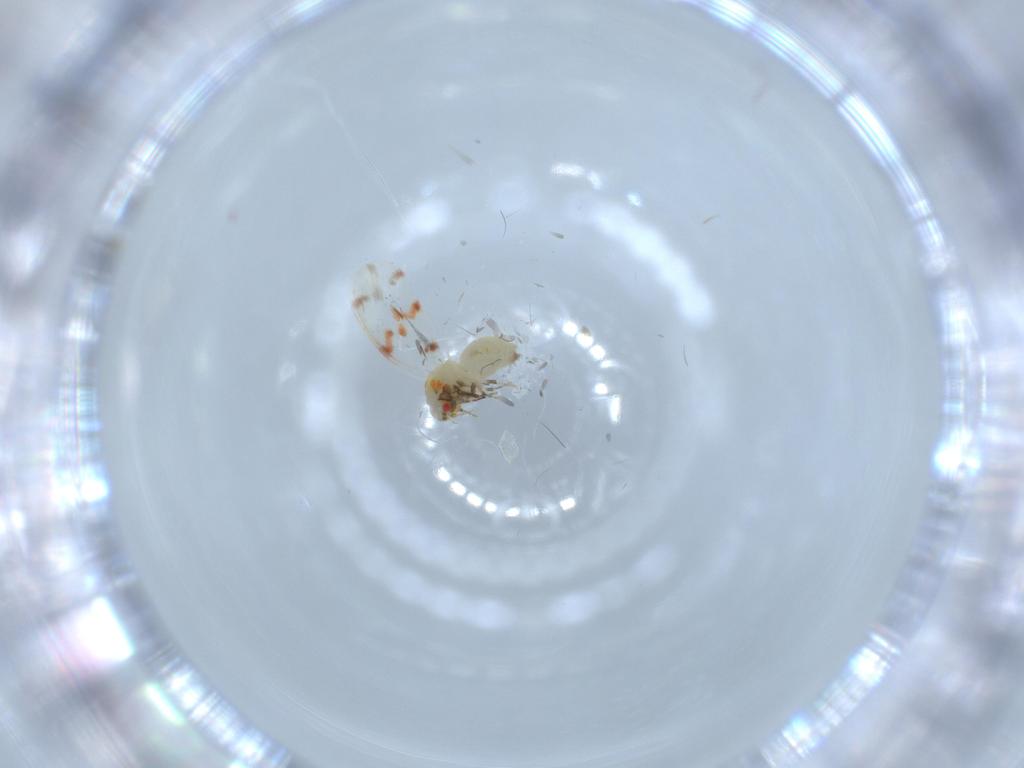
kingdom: Animalia
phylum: Arthropoda
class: Insecta
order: Hemiptera
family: Aleyrodidae
